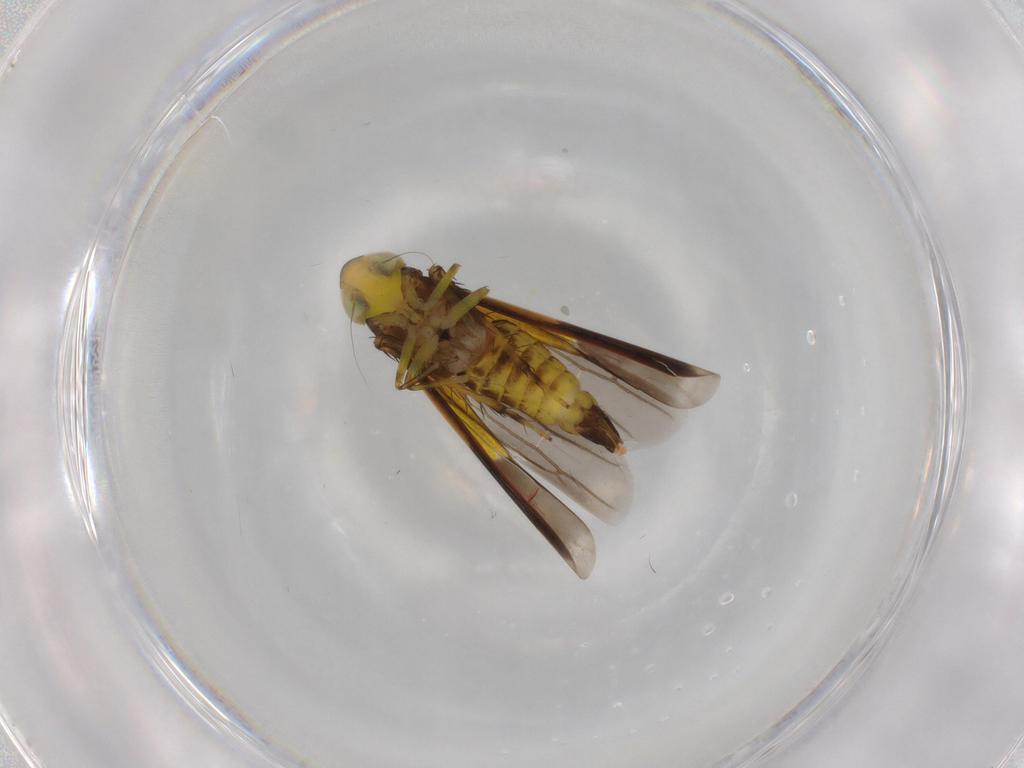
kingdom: Animalia
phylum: Arthropoda
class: Insecta
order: Hemiptera
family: Cicadellidae
